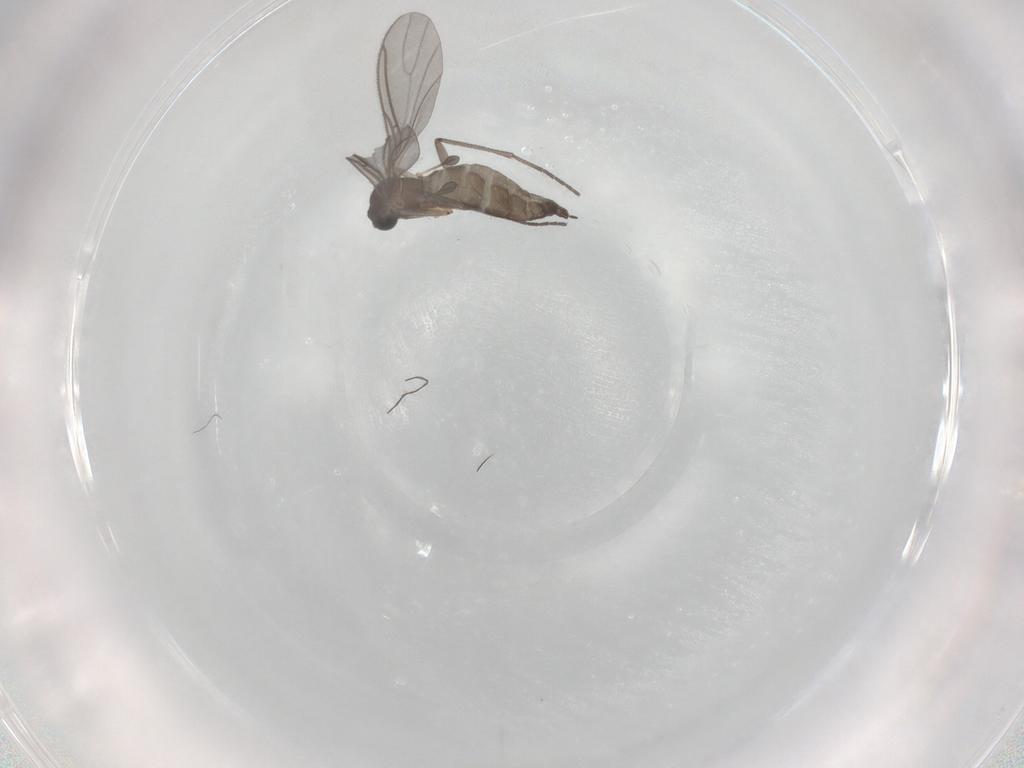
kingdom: Animalia
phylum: Arthropoda
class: Insecta
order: Diptera
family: Sciaridae
